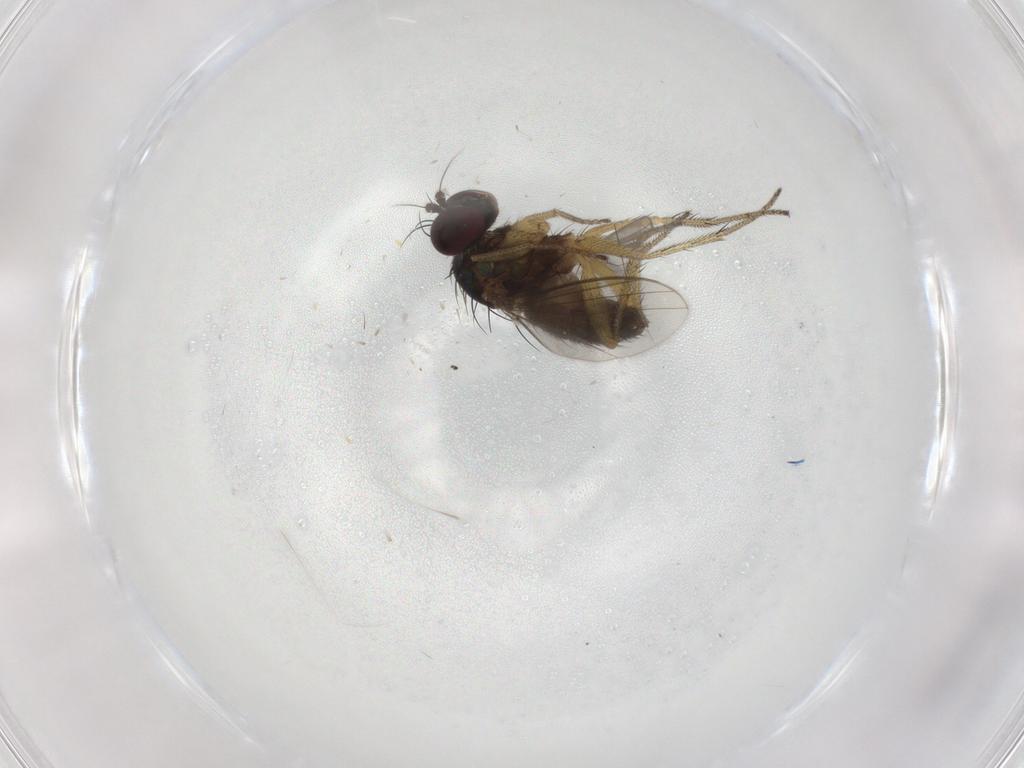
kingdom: Animalia
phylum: Arthropoda
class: Insecta
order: Diptera
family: Dolichopodidae
